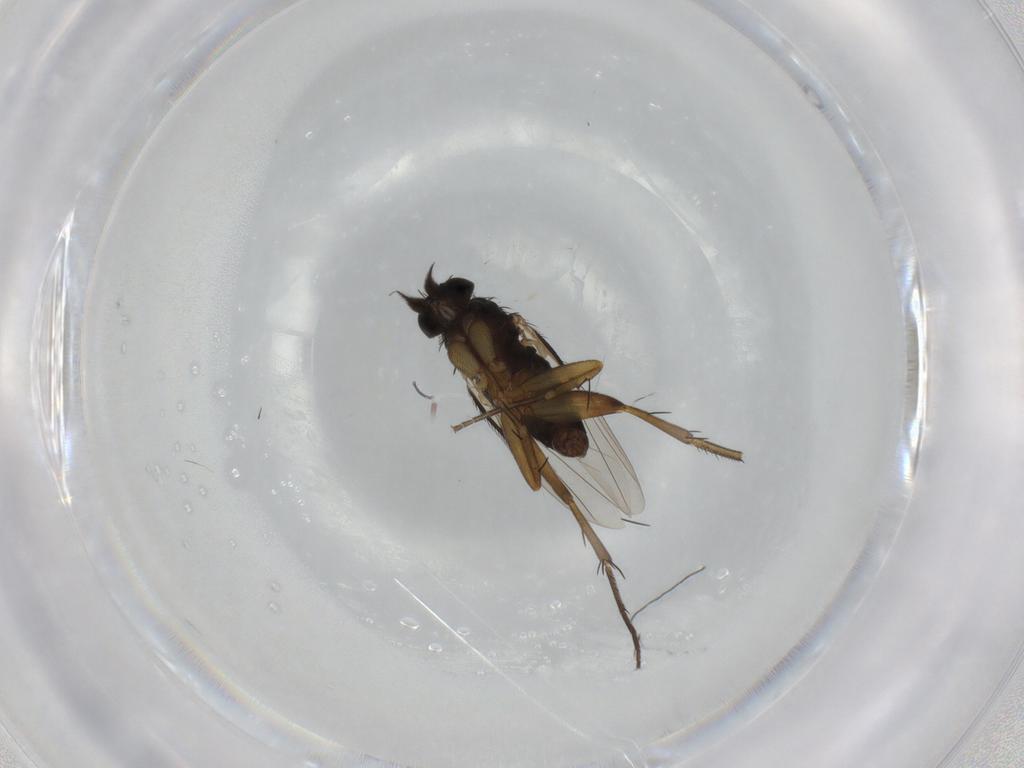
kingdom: Animalia
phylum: Arthropoda
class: Insecta
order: Diptera
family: Phoridae
